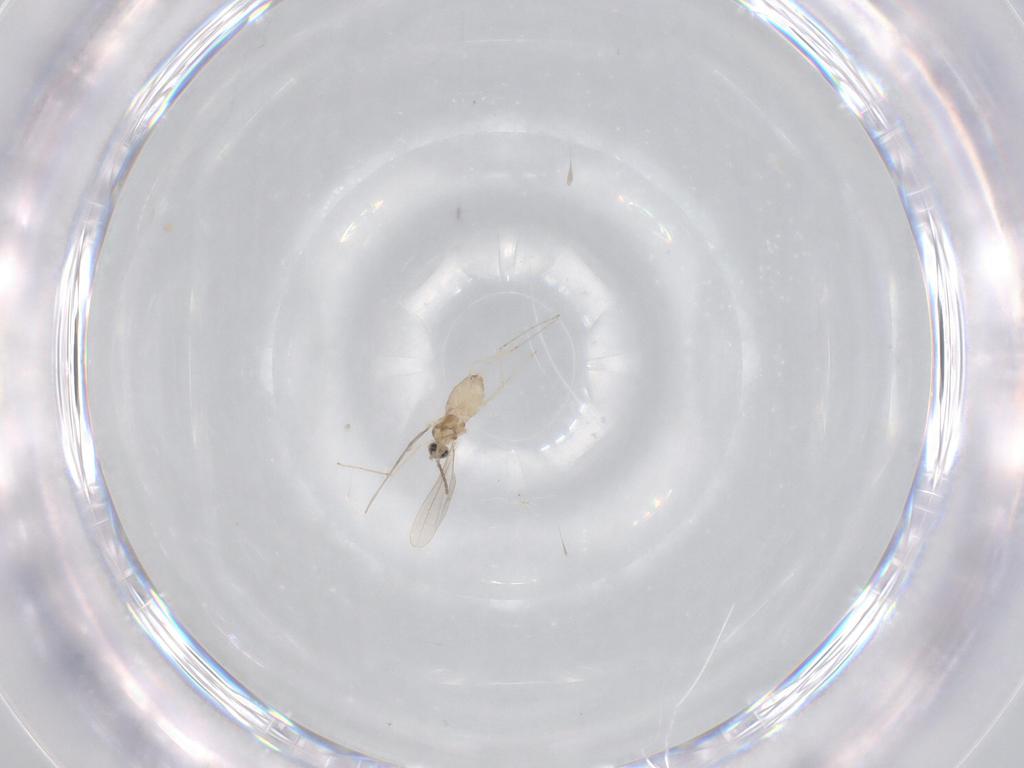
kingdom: Animalia
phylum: Arthropoda
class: Insecta
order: Diptera
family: Cecidomyiidae
